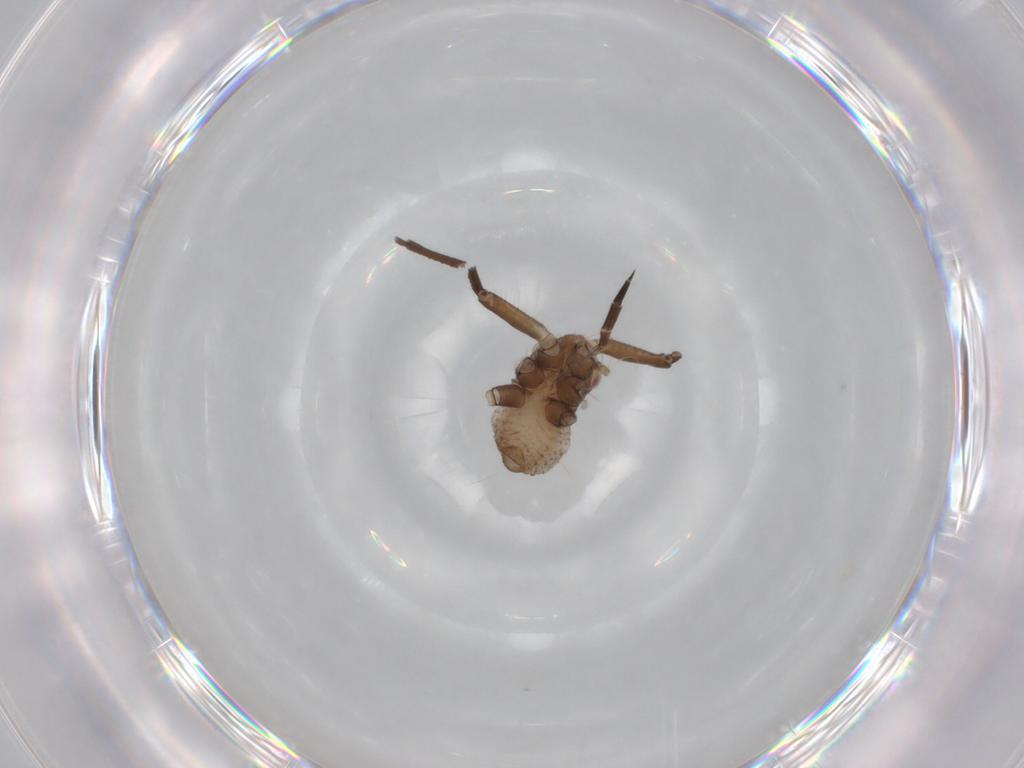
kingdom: Animalia
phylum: Arthropoda
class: Insecta
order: Hemiptera
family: Aphididae
